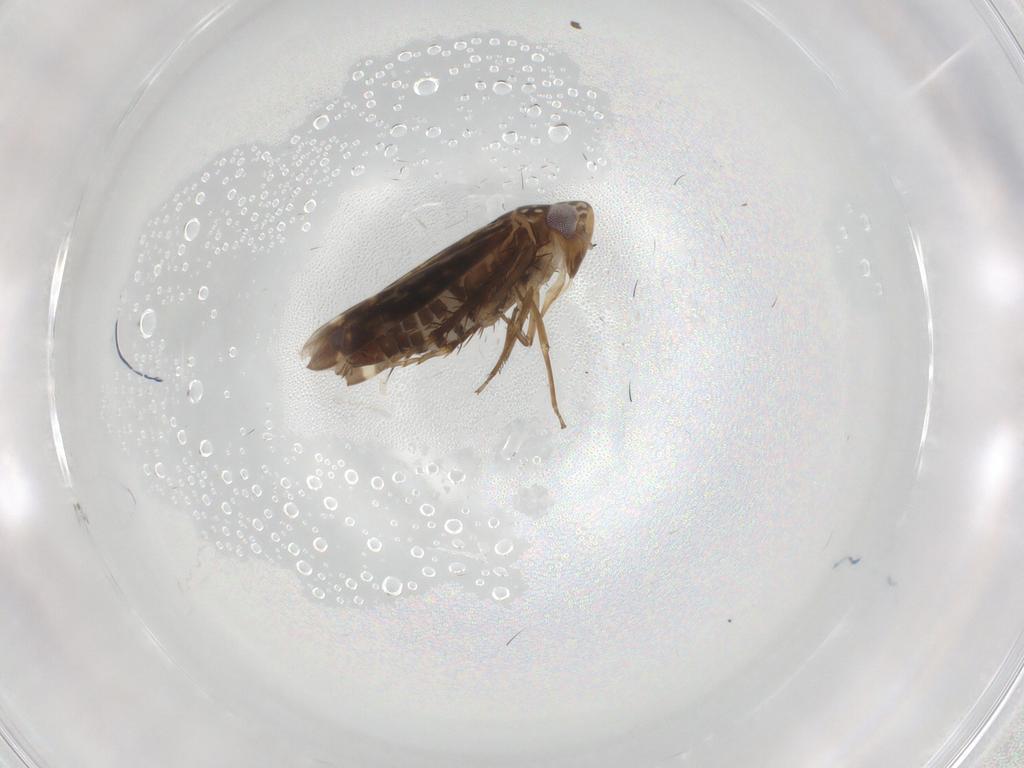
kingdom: Animalia
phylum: Arthropoda
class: Insecta
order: Hemiptera
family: Cicadellidae
